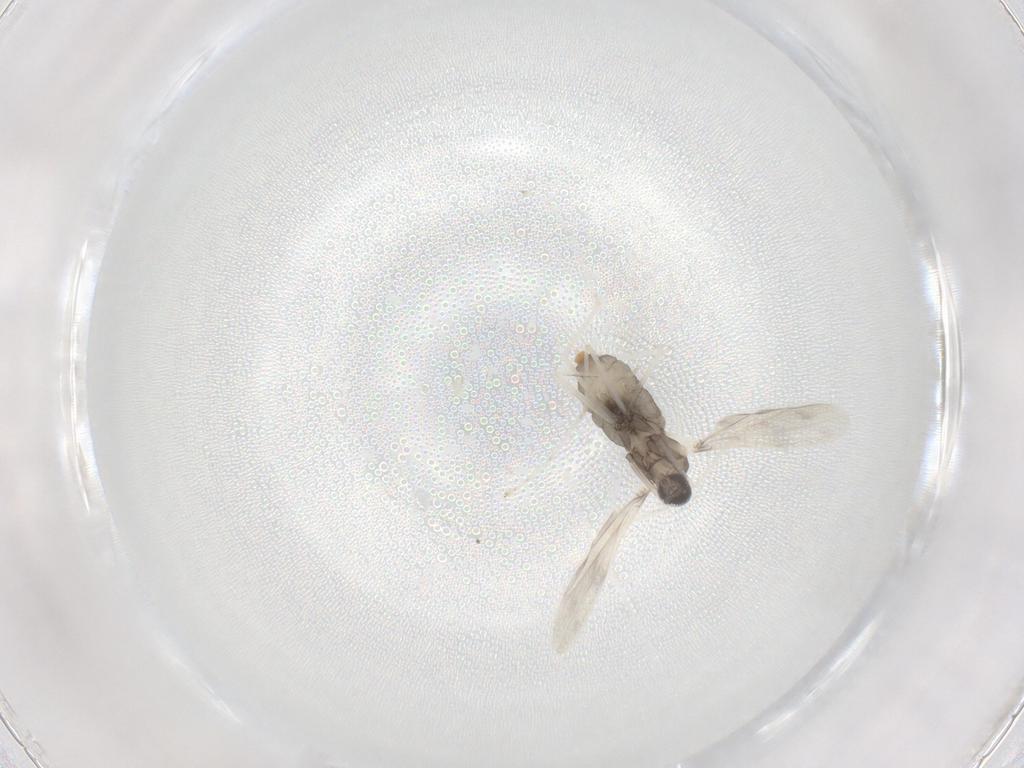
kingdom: Animalia
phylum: Arthropoda
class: Insecta
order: Diptera
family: Cecidomyiidae
